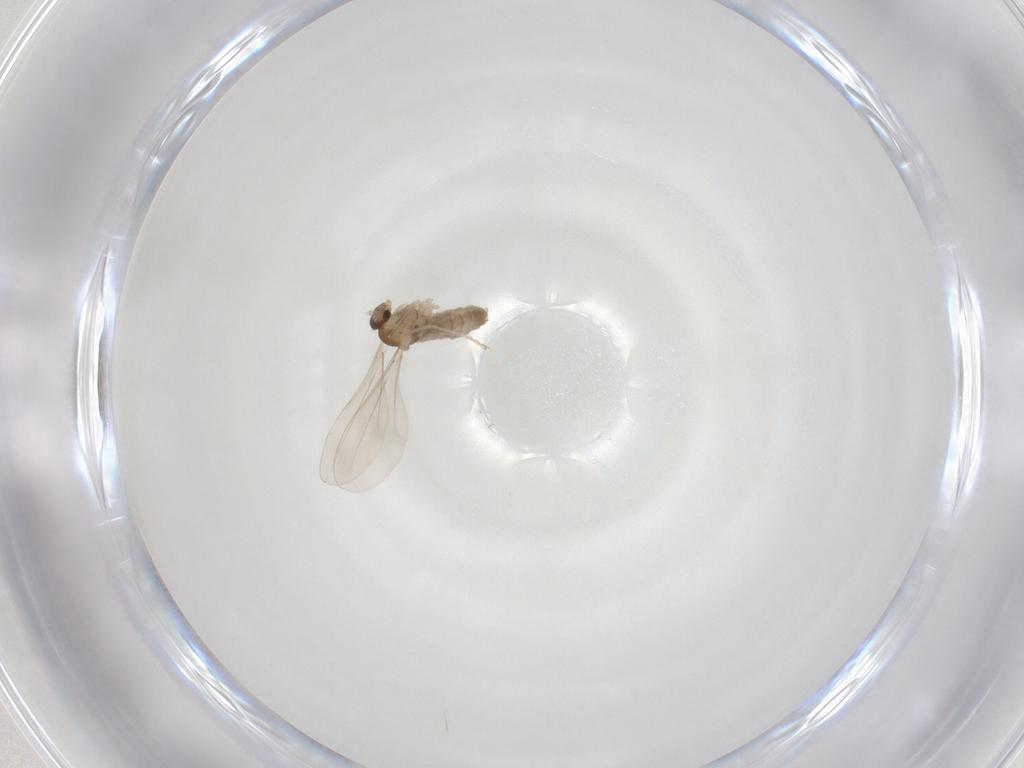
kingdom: Animalia
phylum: Arthropoda
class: Insecta
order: Diptera
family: Cecidomyiidae
